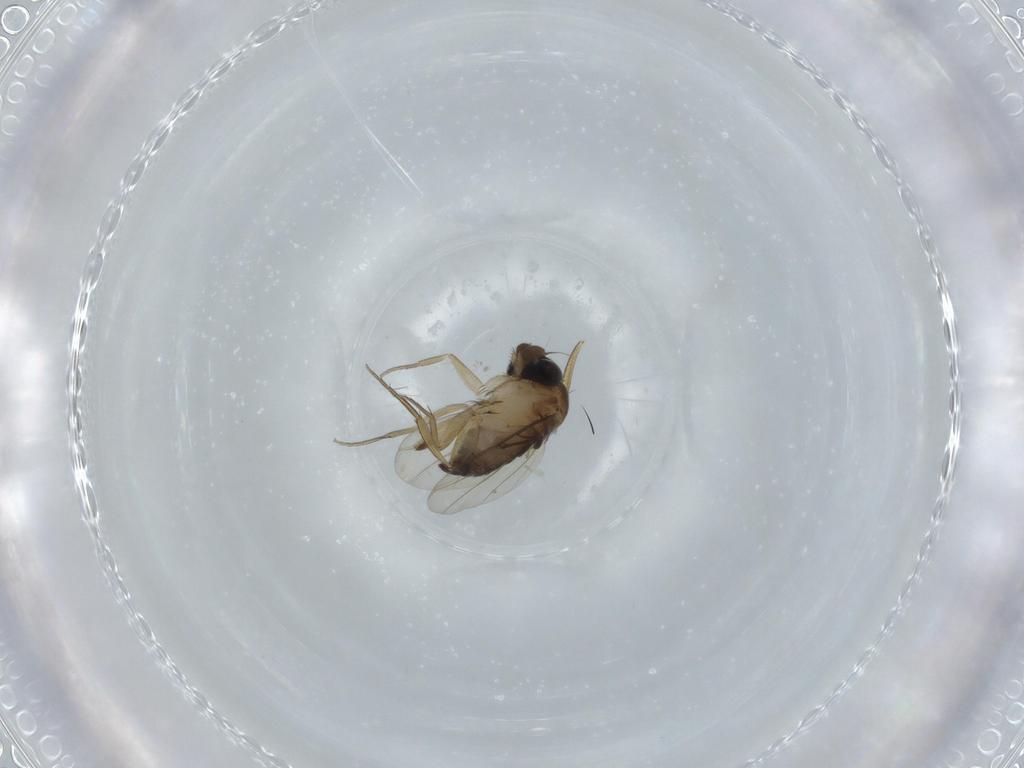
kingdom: Animalia
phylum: Arthropoda
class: Insecta
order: Diptera
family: Phoridae
